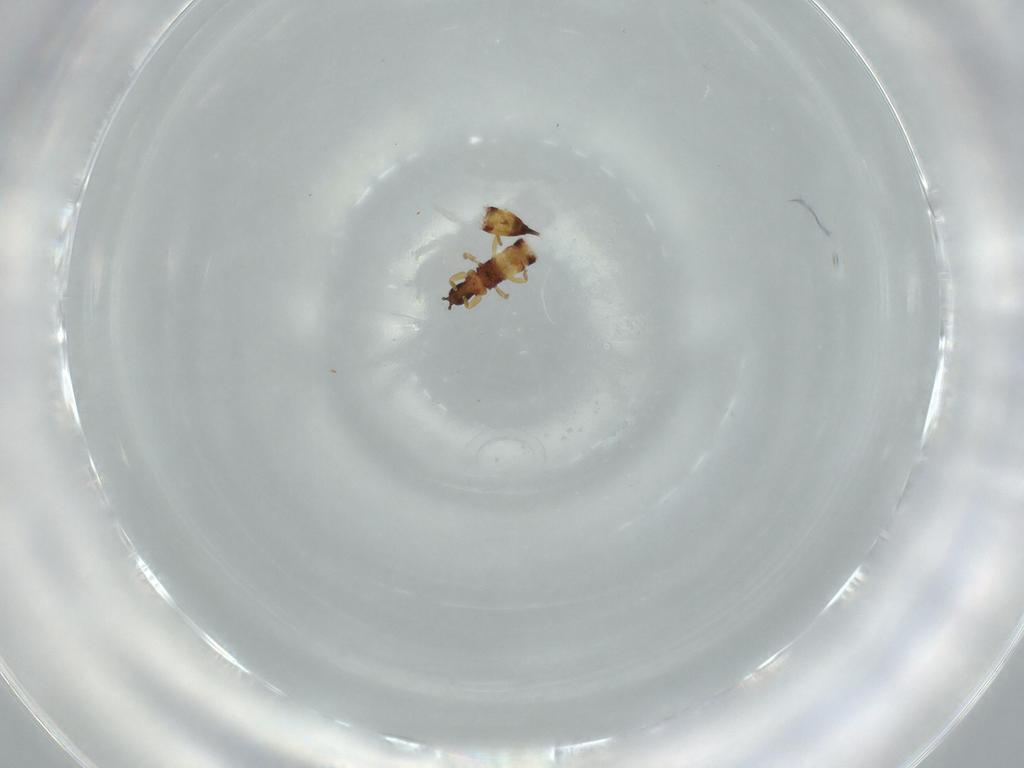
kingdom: Animalia
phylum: Arthropoda
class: Insecta
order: Thysanoptera
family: Phlaeothripidae
